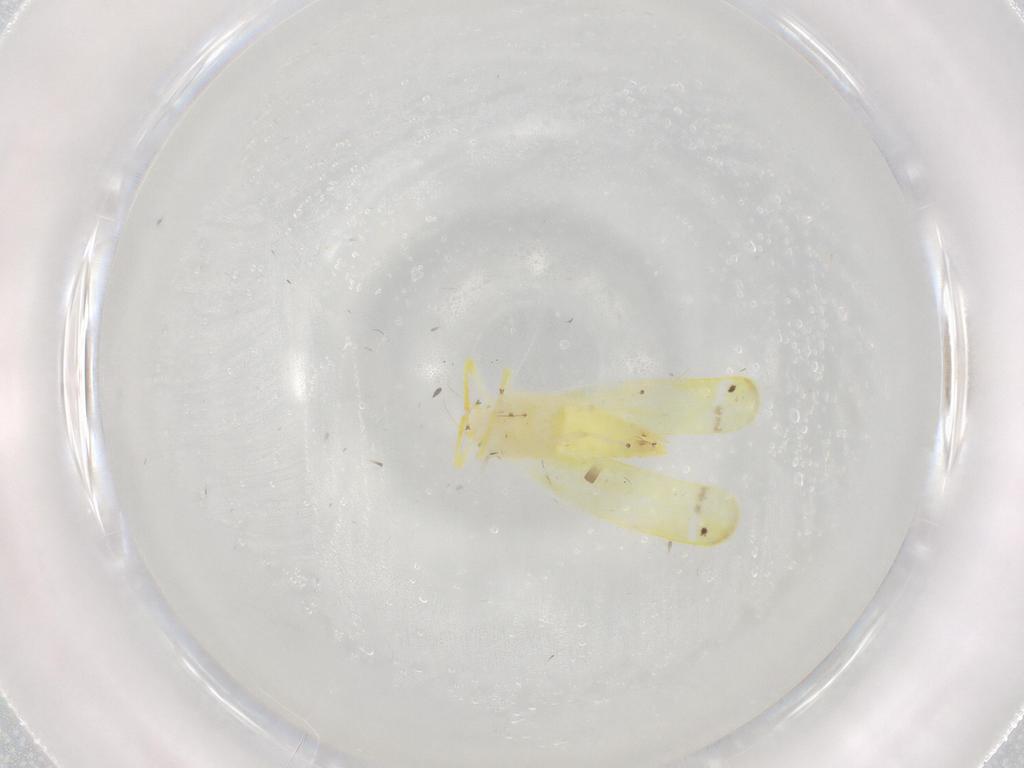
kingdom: Animalia
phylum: Arthropoda
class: Insecta
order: Hemiptera
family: Cicadellidae
